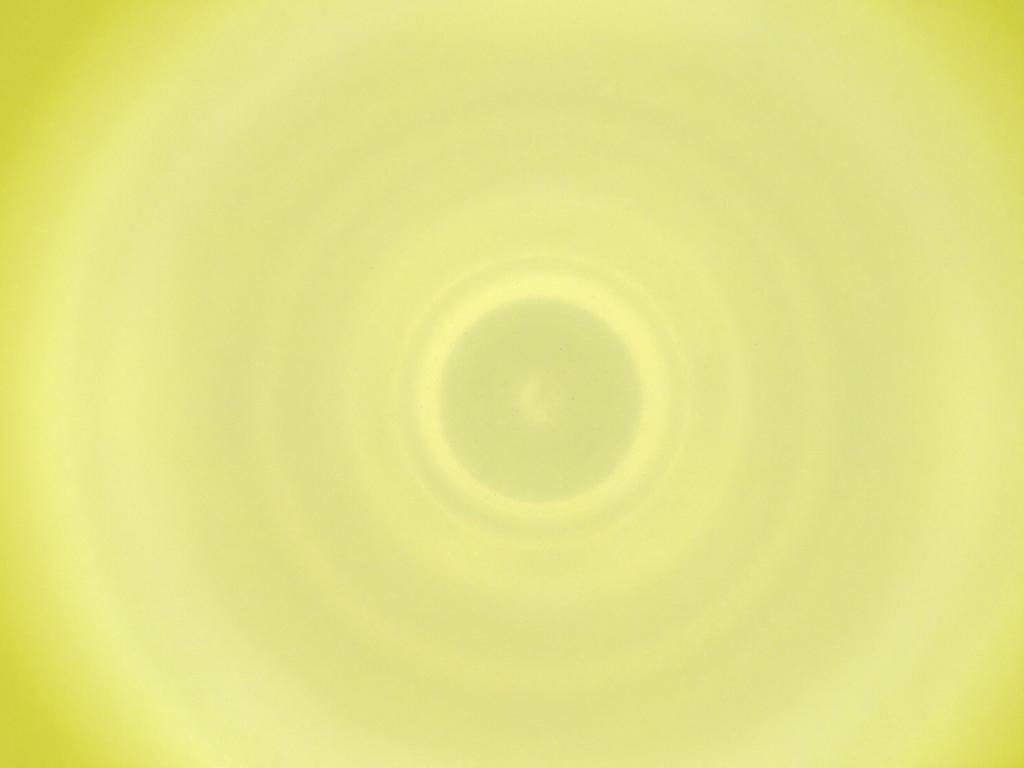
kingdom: Animalia
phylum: Arthropoda
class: Insecta
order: Diptera
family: Cecidomyiidae
